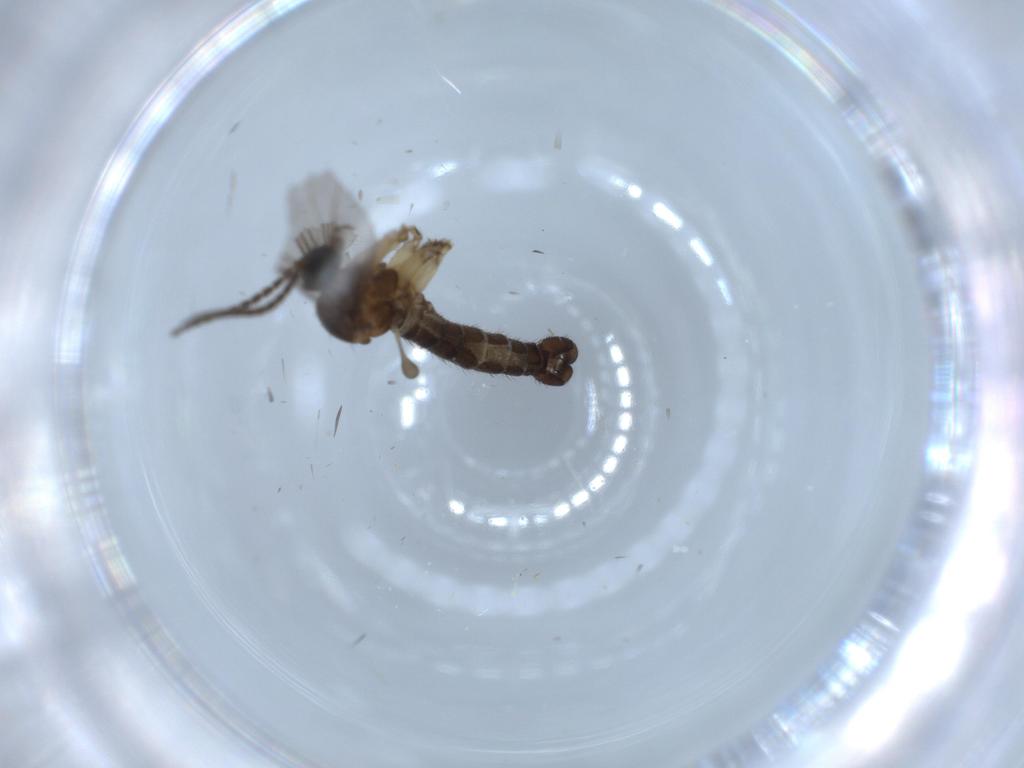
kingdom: Animalia
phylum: Arthropoda
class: Insecta
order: Diptera
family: Sciaridae
